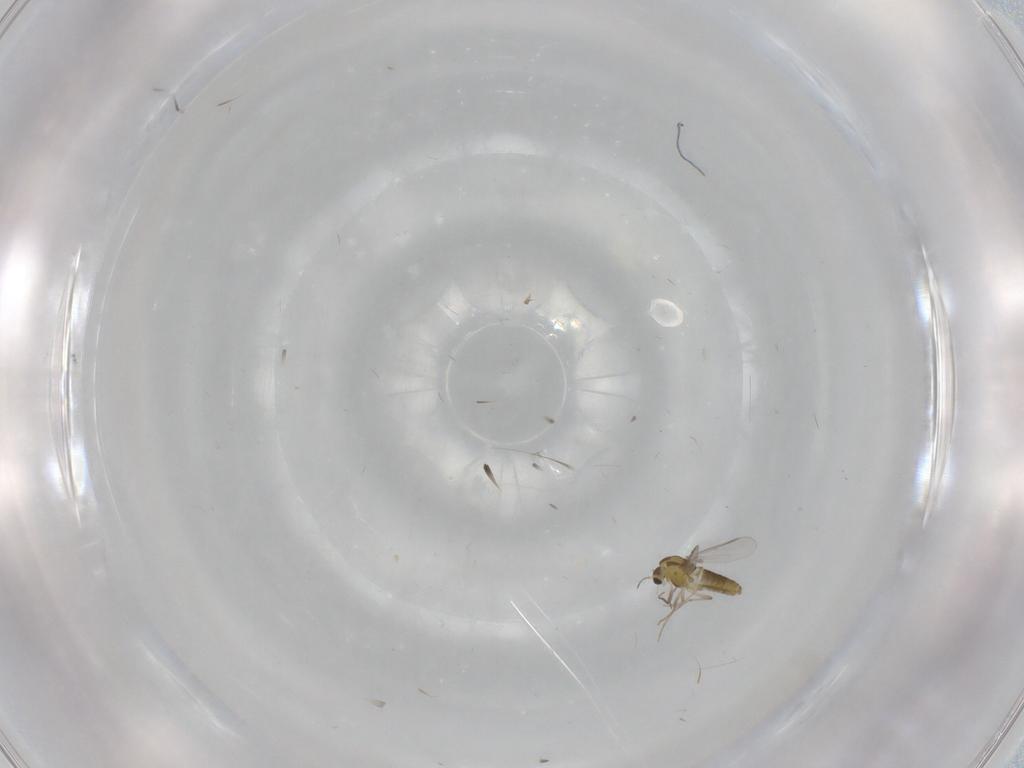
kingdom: Animalia
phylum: Arthropoda
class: Insecta
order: Diptera
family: Chironomidae
